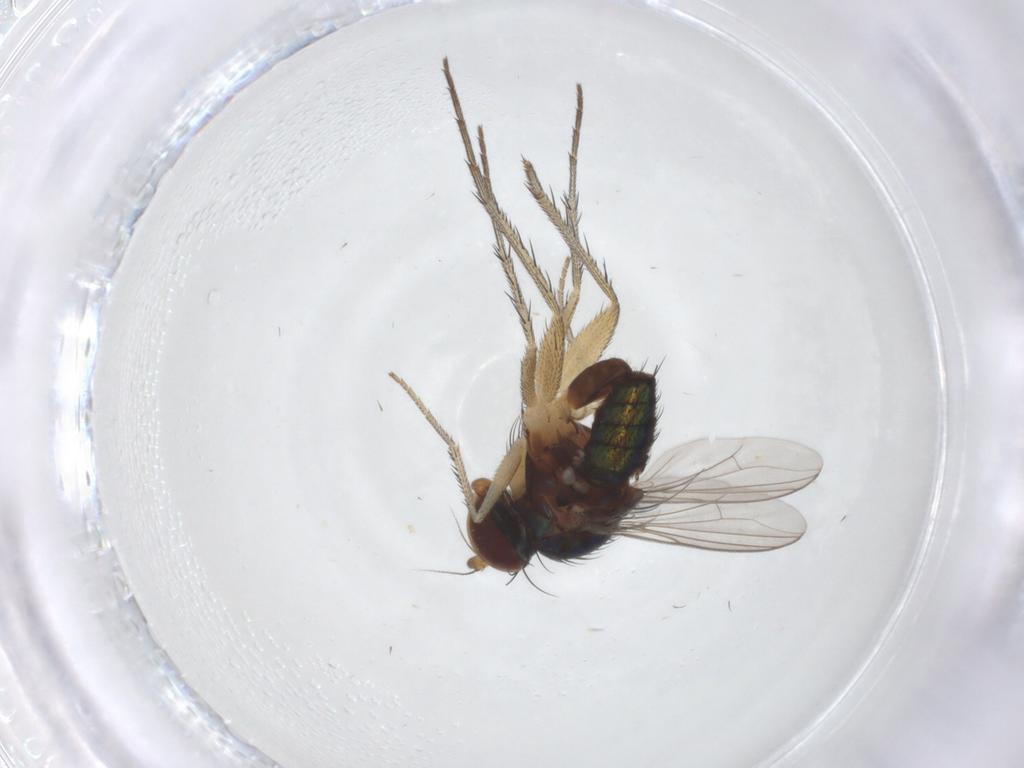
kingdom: Animalia
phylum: Arthropoda
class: Insecta
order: Diptera
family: Dolichopodidae
